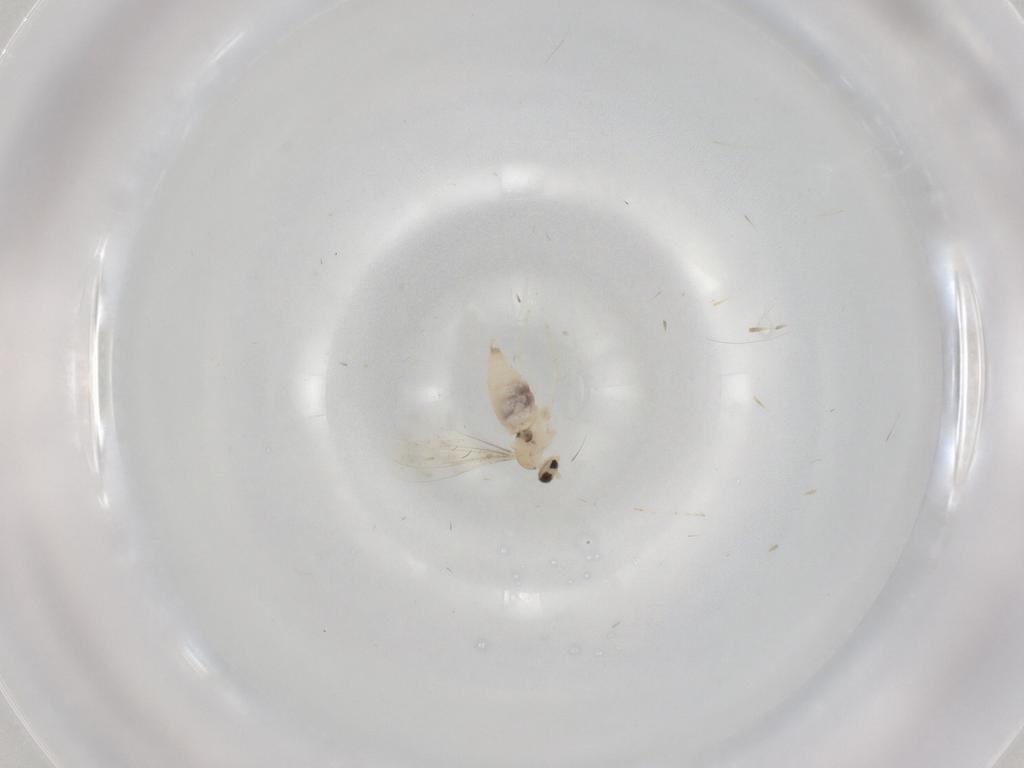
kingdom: Animalia
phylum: Arthropoda
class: Insecta
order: Diptera
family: Cecidomyiidae
